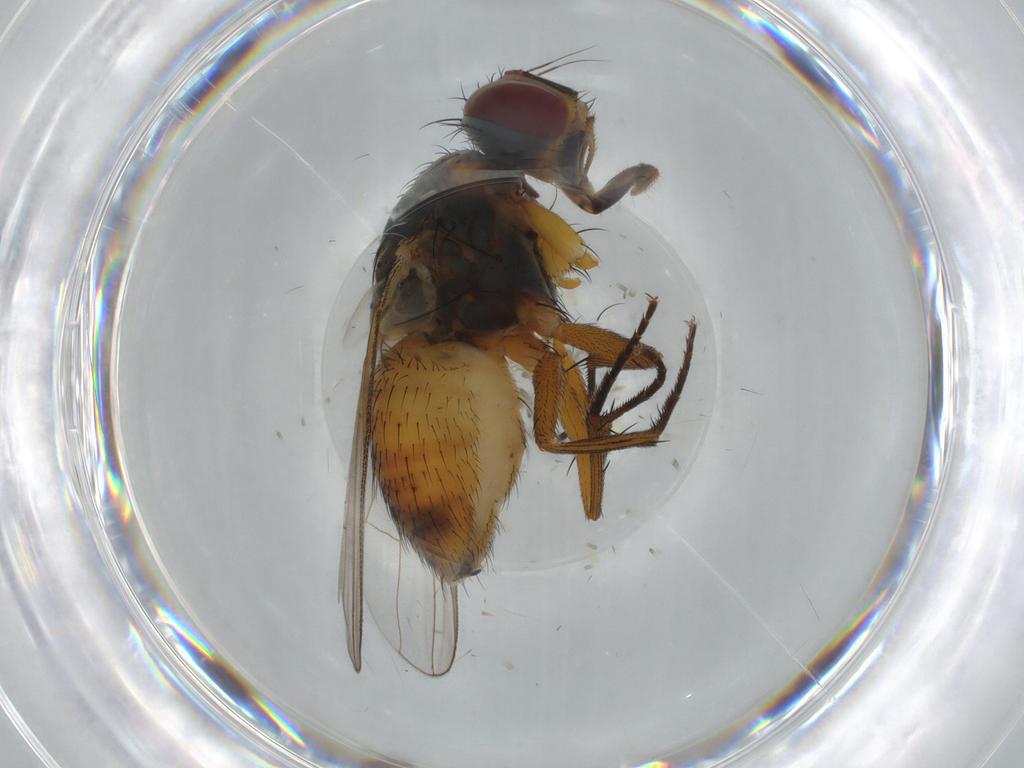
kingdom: Animalia
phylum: Arthropoda
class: Insecta
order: Diptera
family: Muscidae
